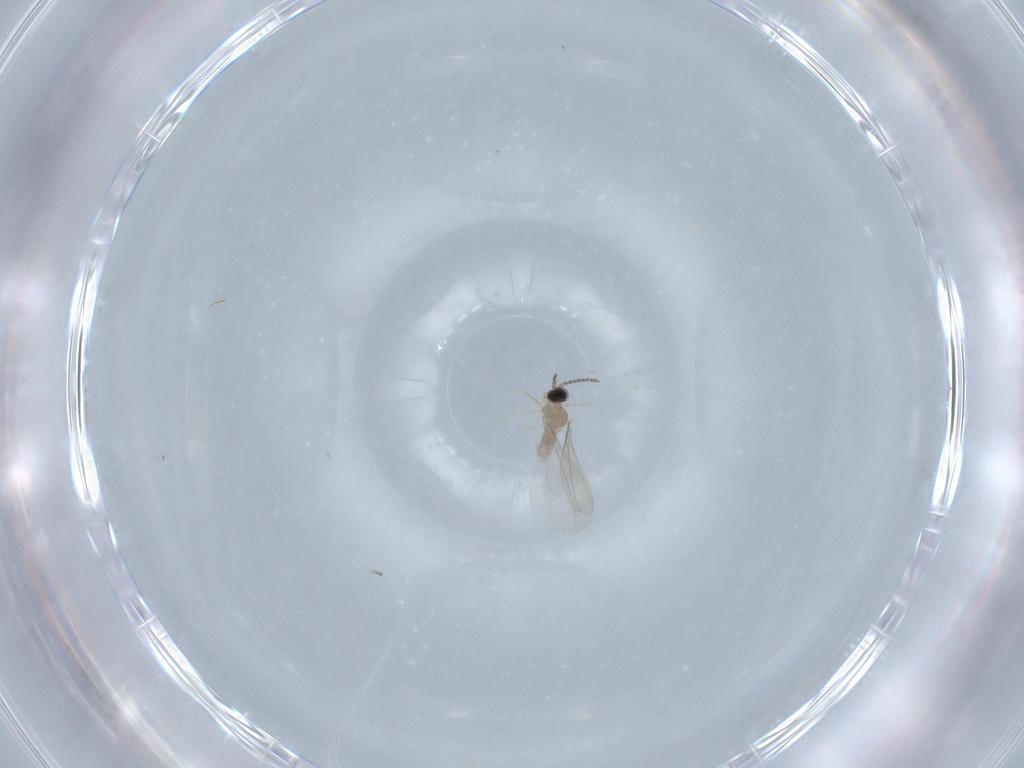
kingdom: Animalia
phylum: Arthropoda
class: Insecta
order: Diptera
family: Cecidomyiidae
